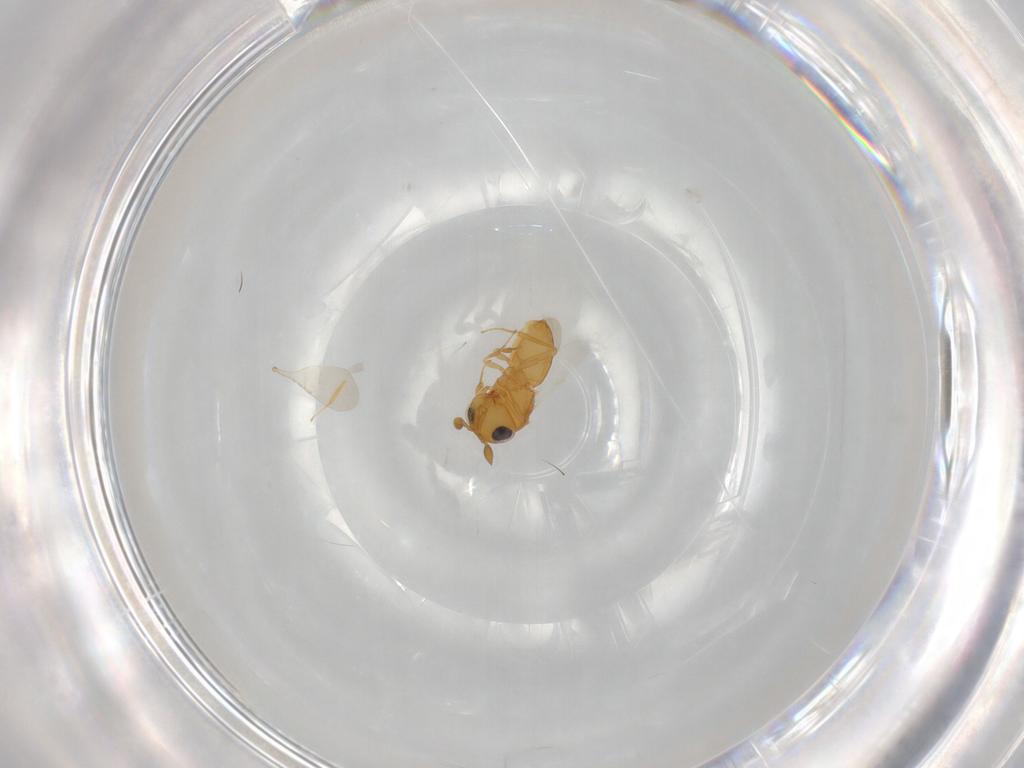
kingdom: Animalia
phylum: Arthropoda
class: Insecta
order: Hymenoptera
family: Scelionidae
